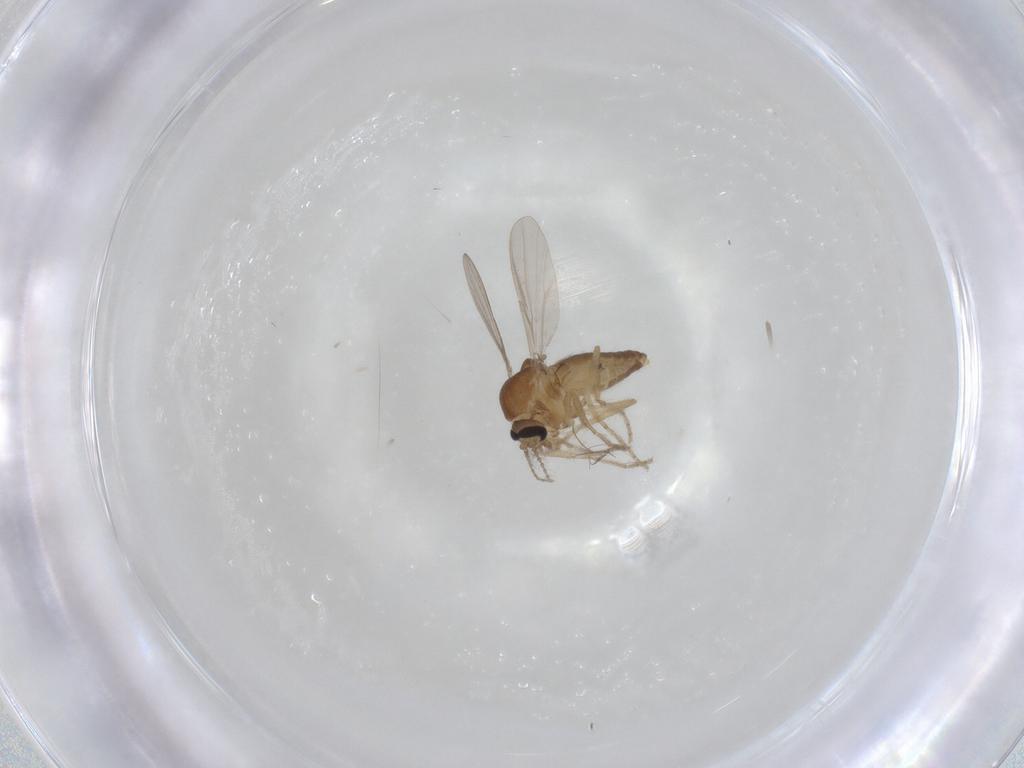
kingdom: Animalia
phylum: Arthropoda
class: Insecta
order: Diptera
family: Ceratopogonidae
